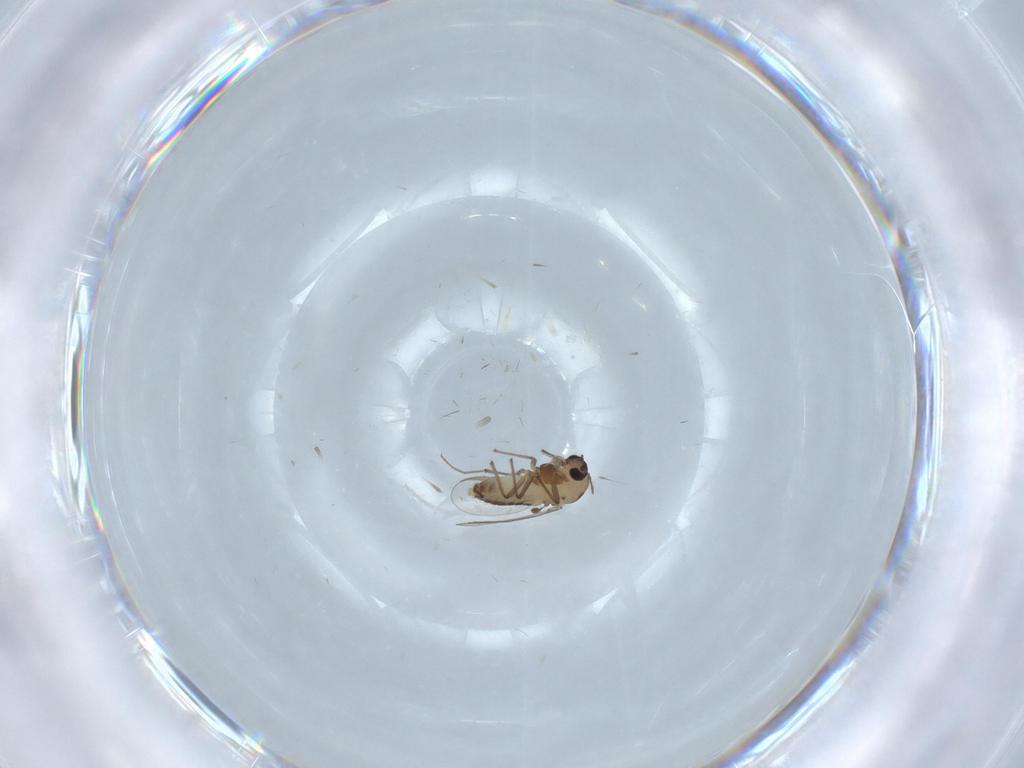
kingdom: Animalia
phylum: Arthropoda
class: Insecta
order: Diptera
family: Chironomidae
